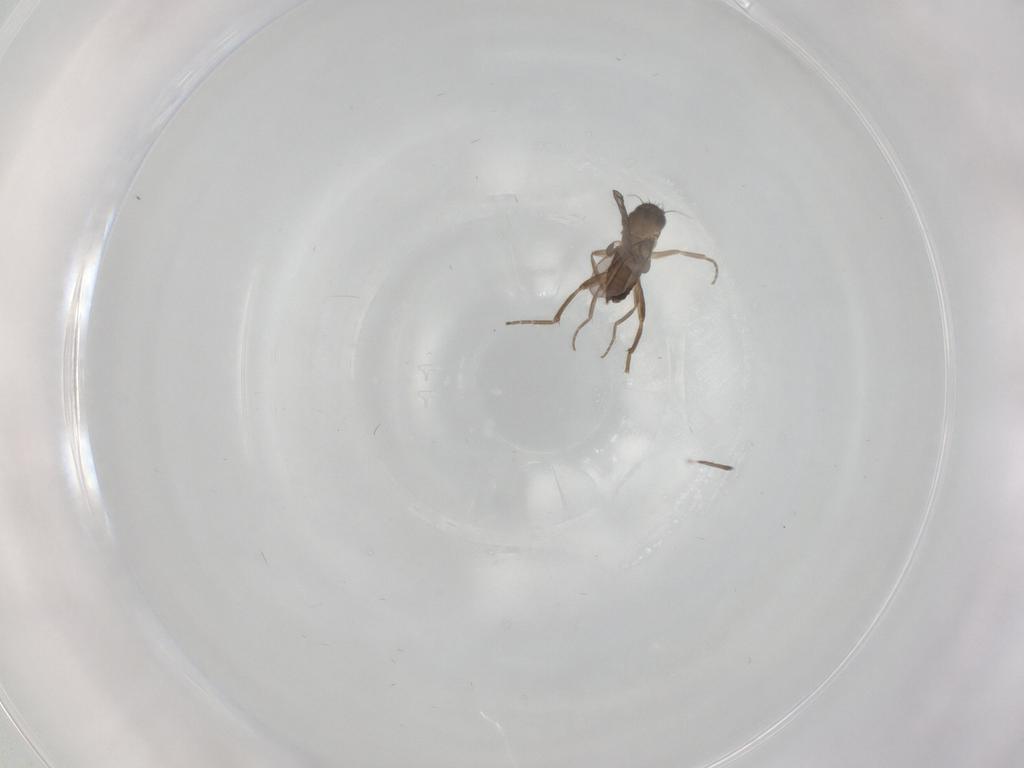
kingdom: Animalia
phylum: Arthropoda
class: Insecta
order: Diptera
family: Phoridae
